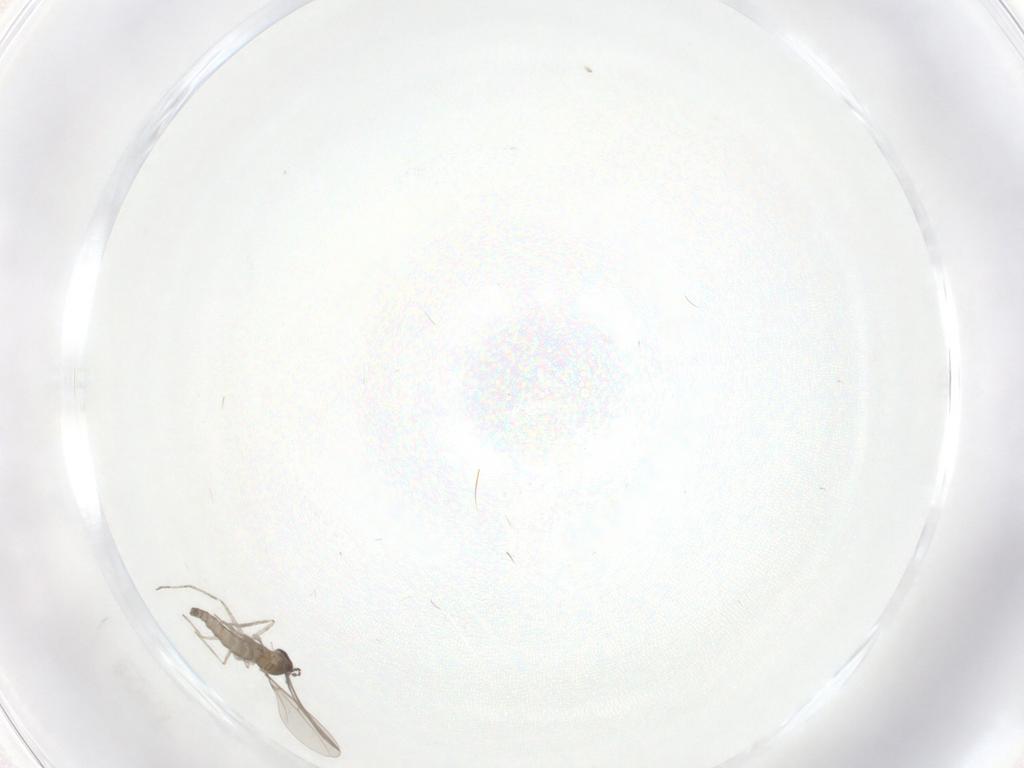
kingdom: Animalia
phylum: Arthropoda
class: Insecta
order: Diptera
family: Cecidomyiidae
